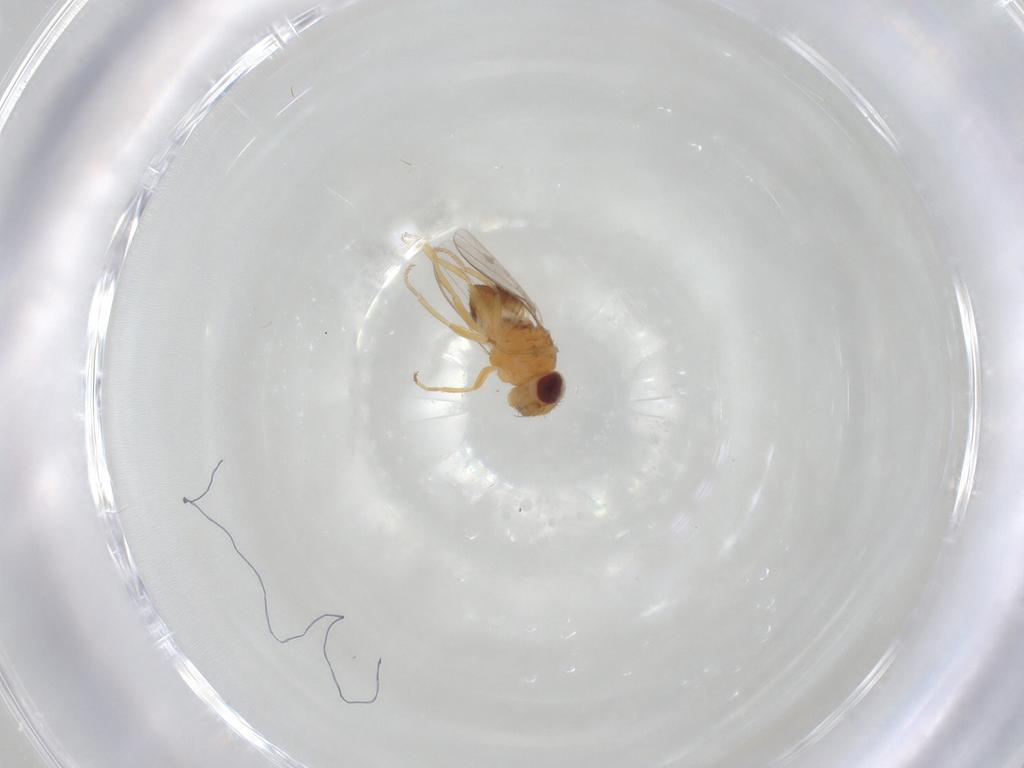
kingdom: Animalia
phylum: Arthropoda
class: Insecta
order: Diptera
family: Chloropidae
